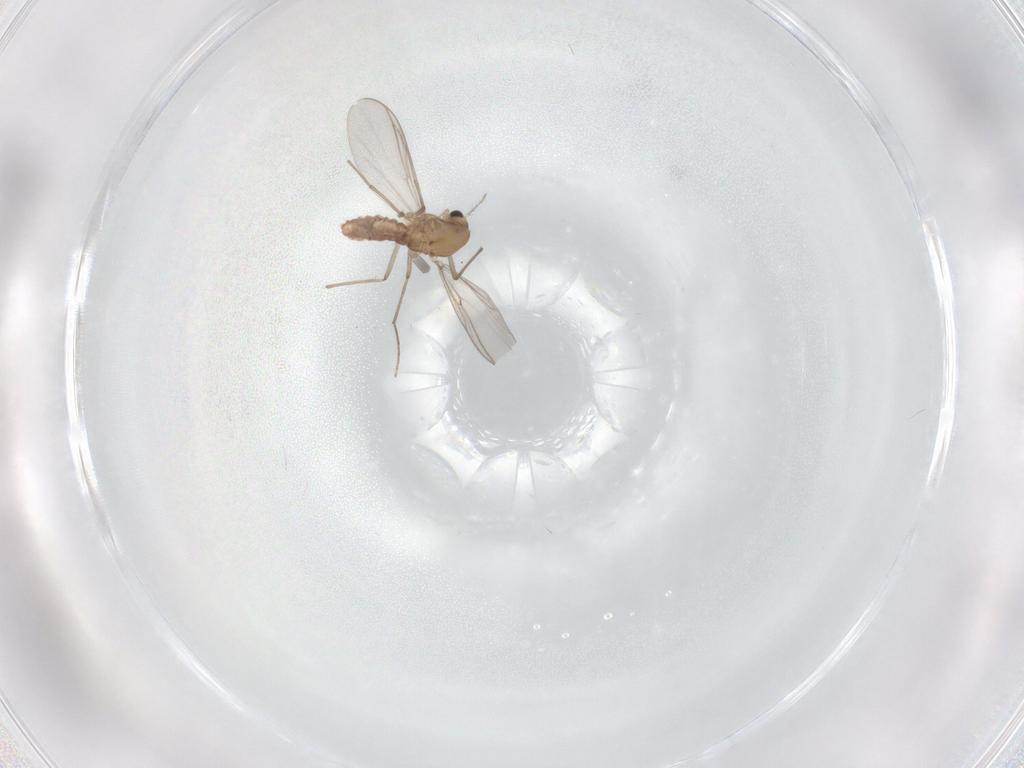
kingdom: Animalia
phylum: Arthropoda
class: Insecta
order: Diptera
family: Chironomidae
